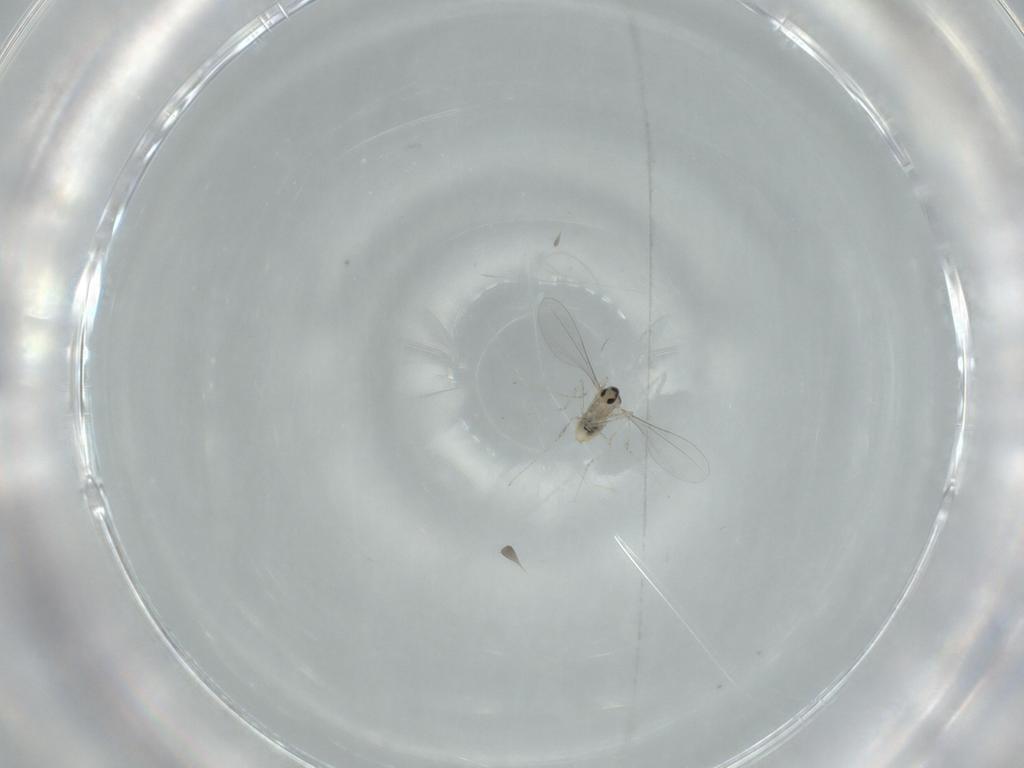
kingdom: Animalia
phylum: Arthropoda
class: Insecta
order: Diptera
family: Cecidomyiidae
